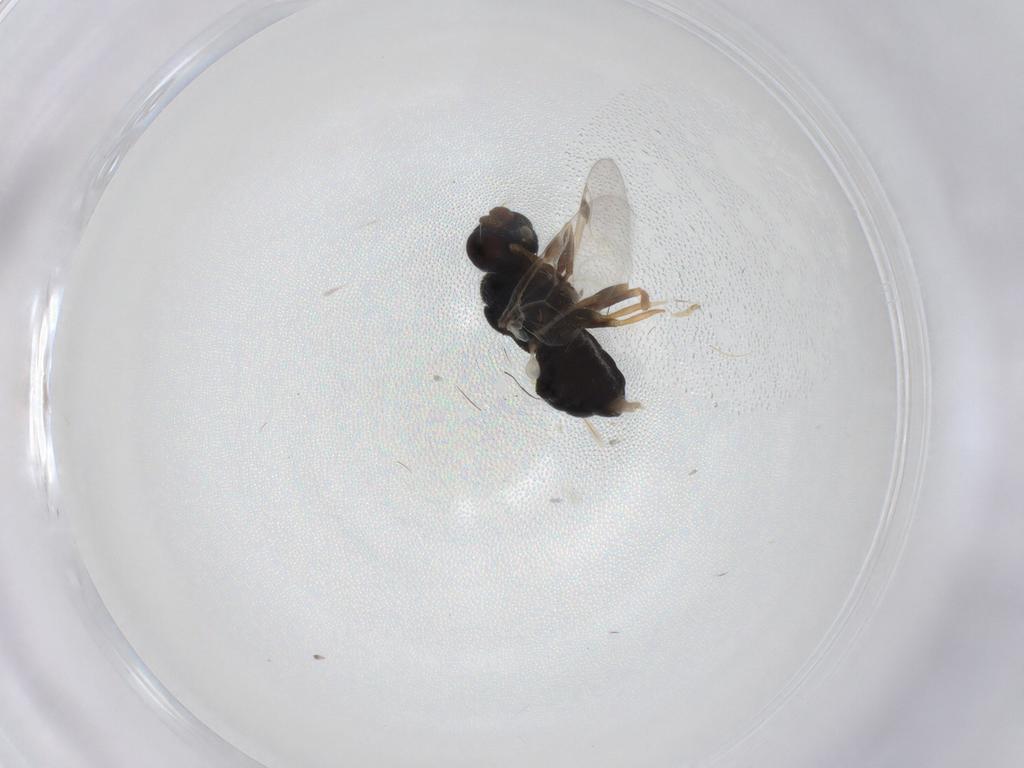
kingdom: Animalia
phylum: Arthropoda
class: Insecta
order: Diptera
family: Stratiomyidae
